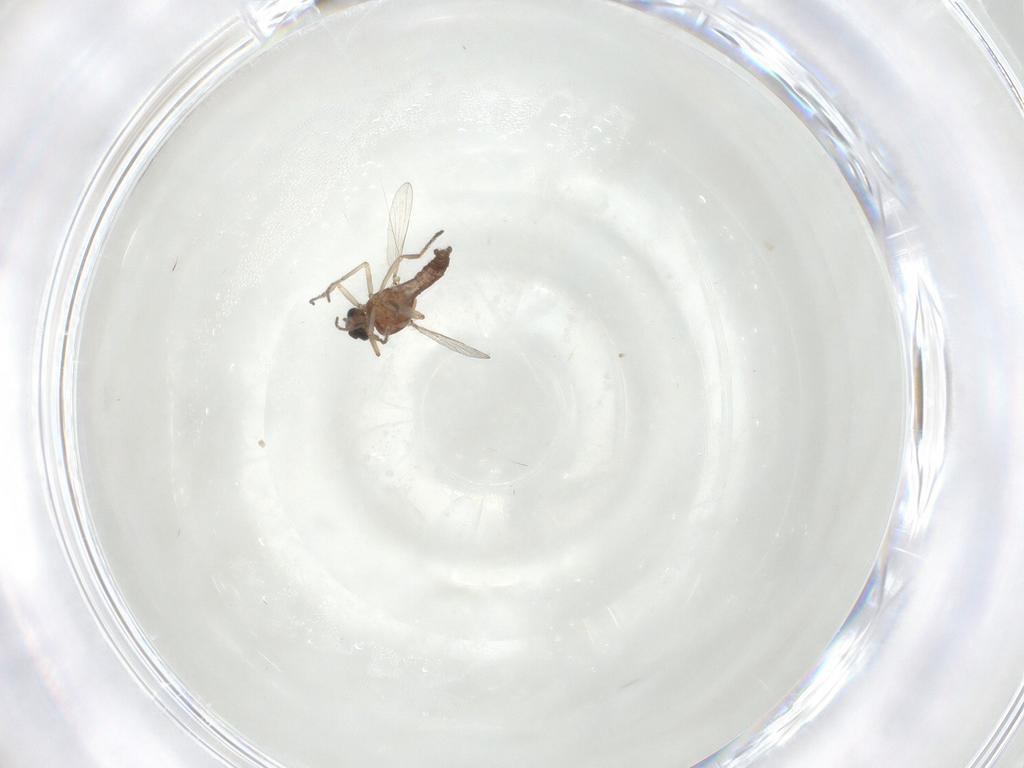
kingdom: Animalia
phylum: Arthropoda
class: Insecta
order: Diptera
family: Ceratopogonidae
